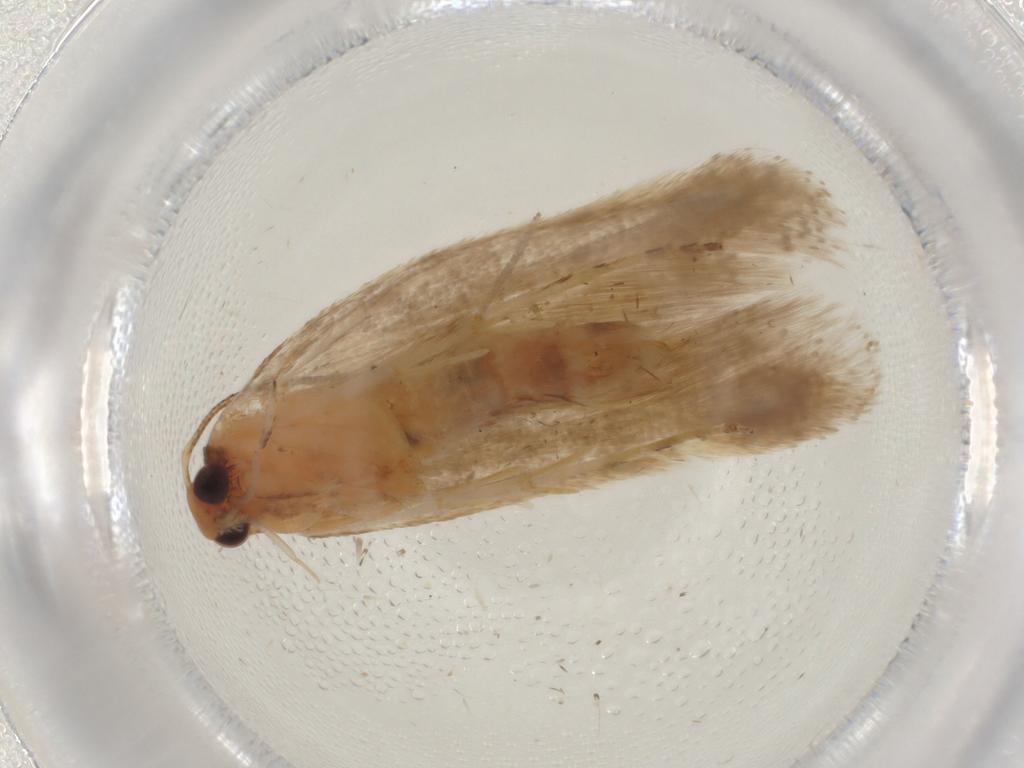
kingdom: Animalia
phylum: Arthropoda
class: Insecta
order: Lepidoptera
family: Gelechiidae
